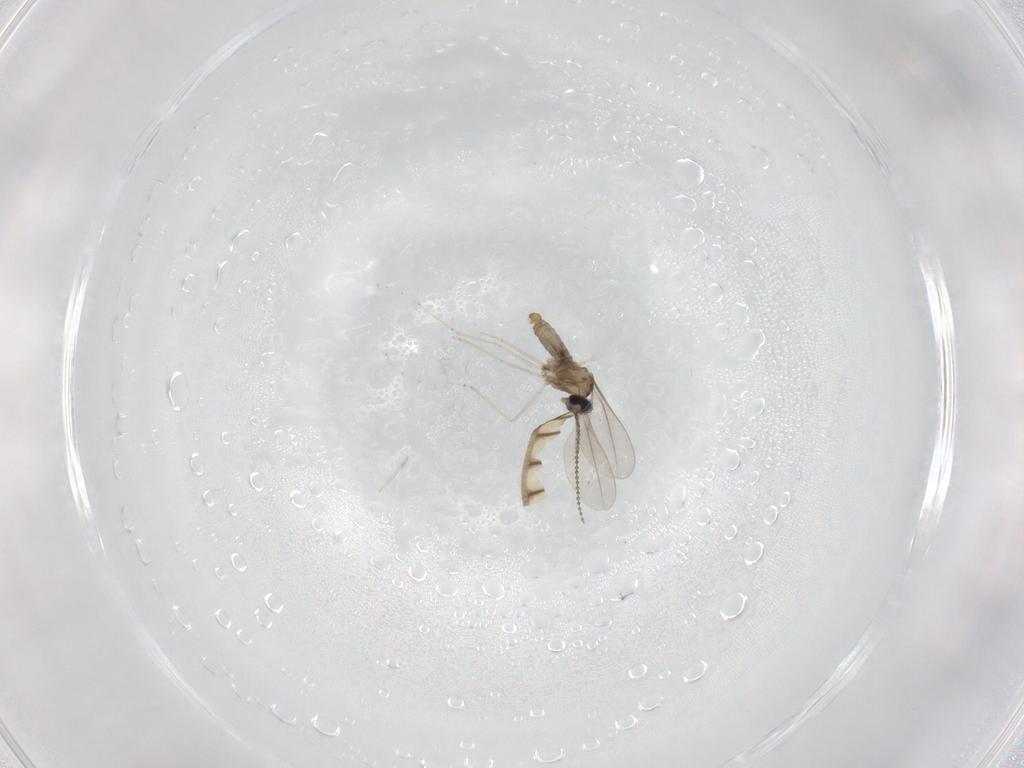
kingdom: Animalia
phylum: Arthropoda
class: Insecta
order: Diptera
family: Cecidomyiidae
